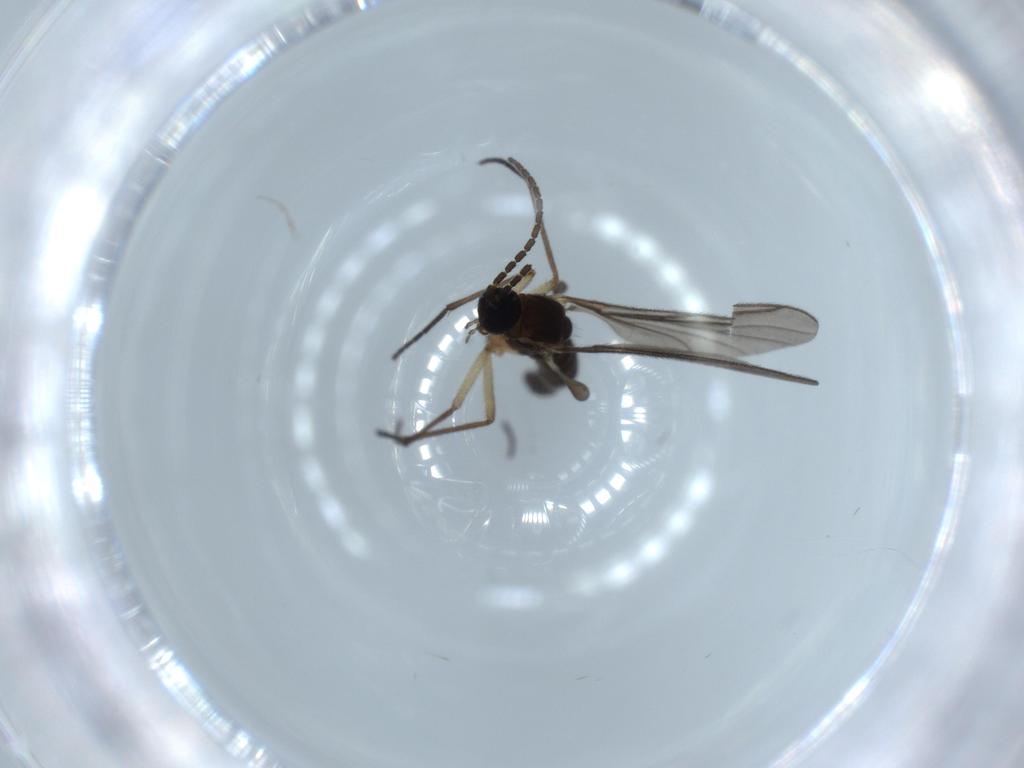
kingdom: Animalia
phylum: Arthropoda
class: Insecta
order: Diptera
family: Sciaridae
